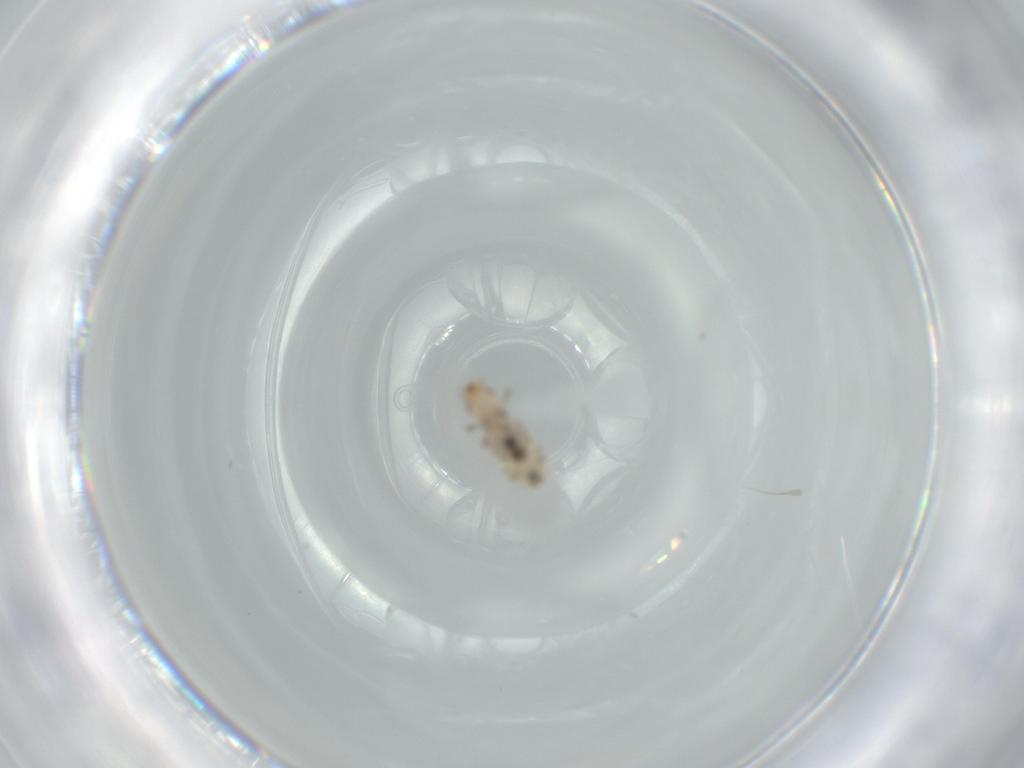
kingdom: Animalia
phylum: Arthropoda
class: Insecta
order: Psocodea
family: Liposcelididae
